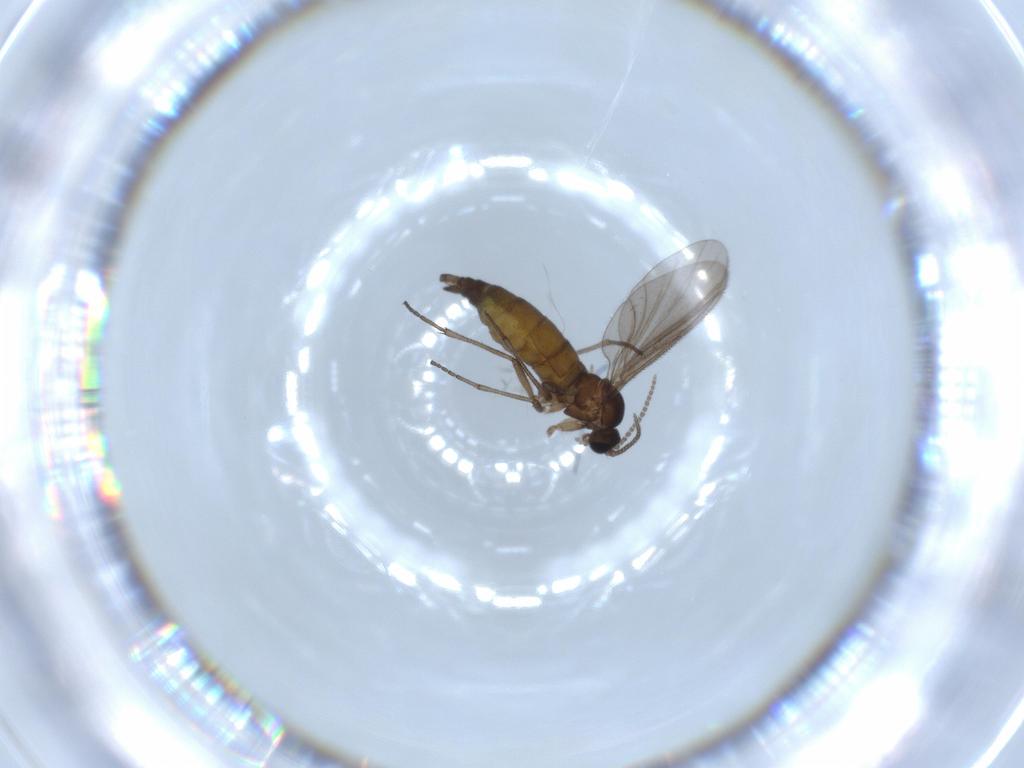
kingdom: Animalia
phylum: Arthropoda
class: Insecta
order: Diptera
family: Sciaridae
